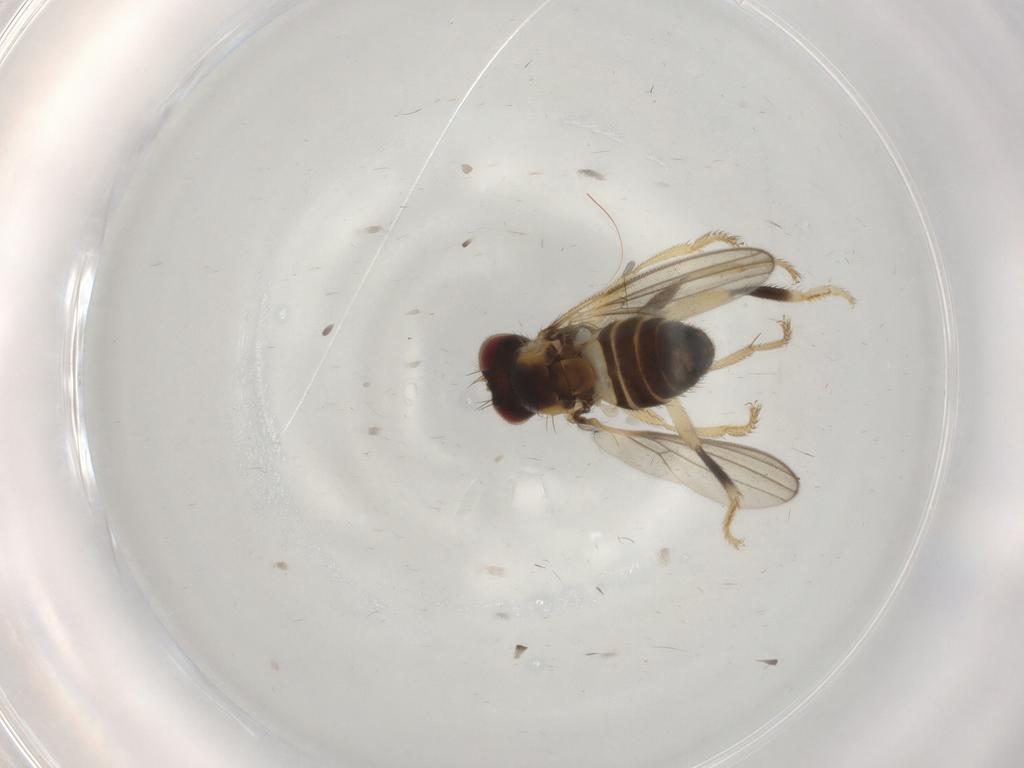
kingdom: Animalia
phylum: Arthropoda
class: Insecta
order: Diptera
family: Periscelididae
